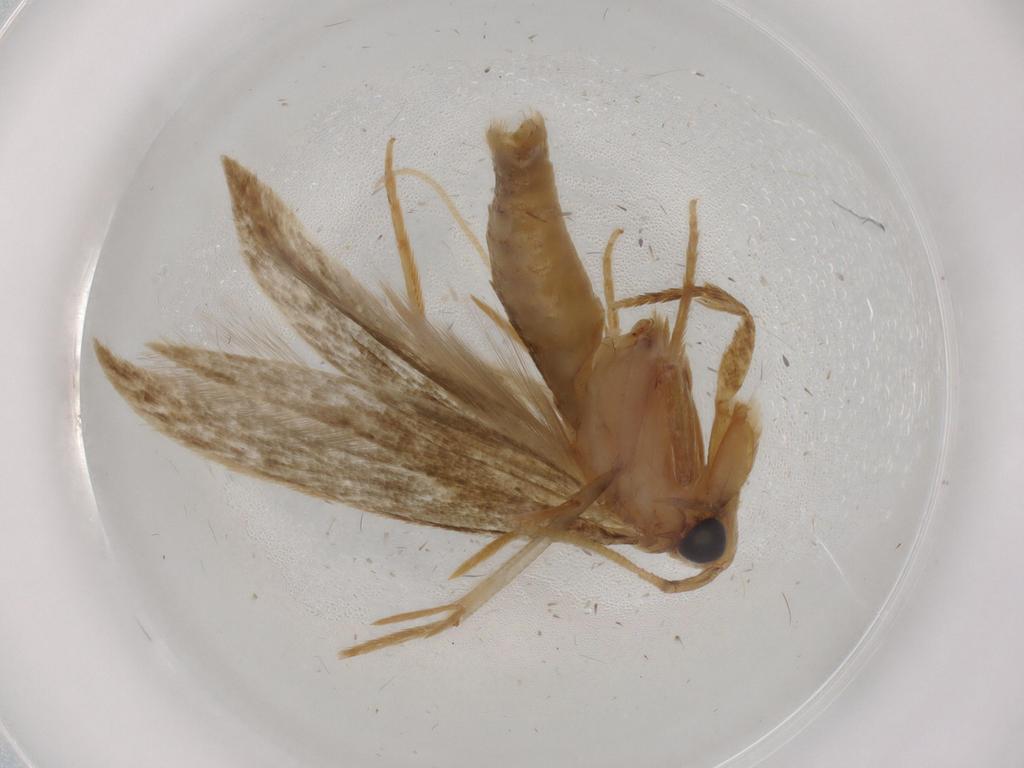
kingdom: Animalia
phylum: Arthropoda
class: Insecta
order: Lepidoptera
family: Tineidae
